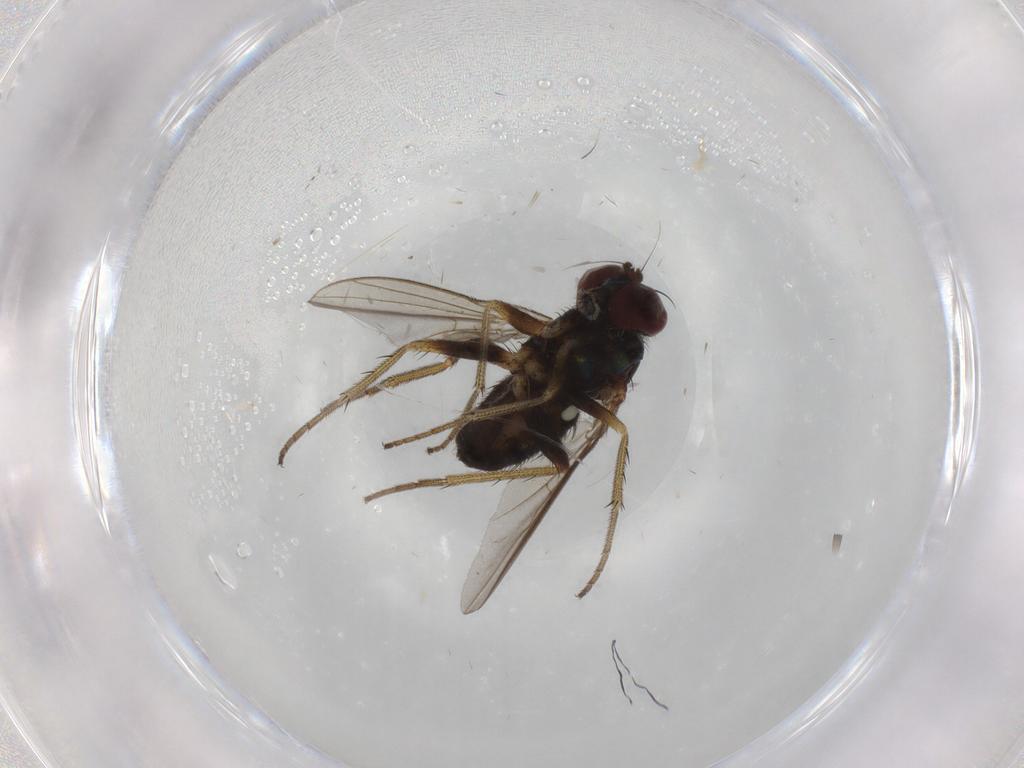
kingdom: Animalia
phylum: Arthropoda
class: Insecta
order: Diptera
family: Dolichopodidae
